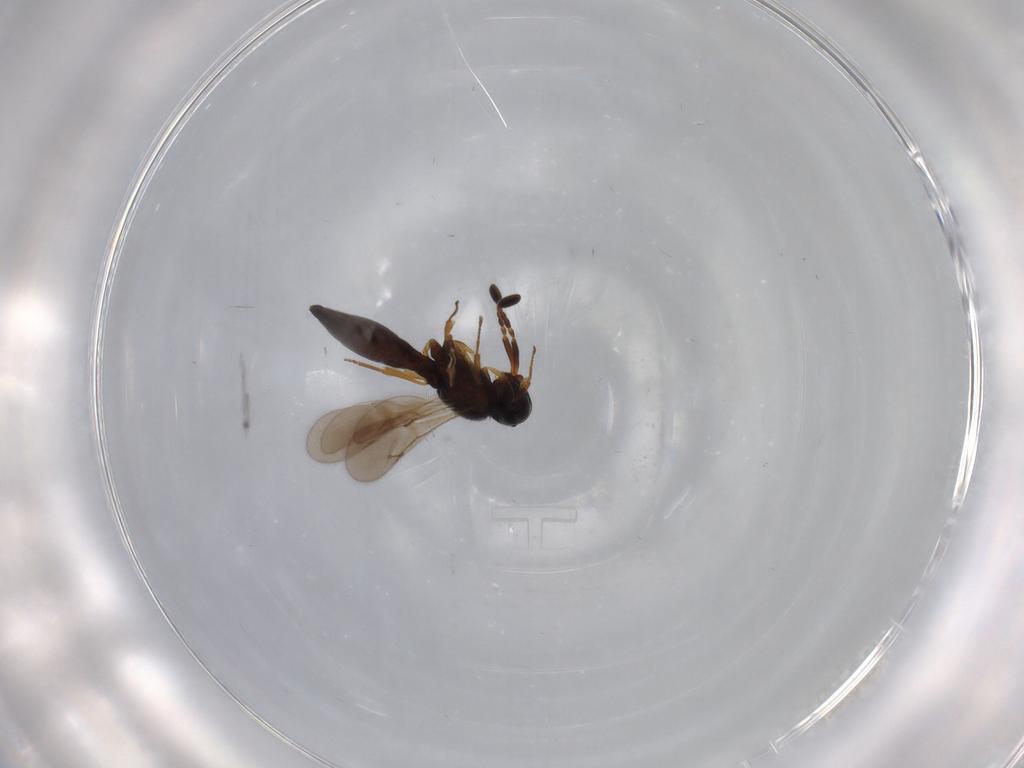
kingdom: Animalia
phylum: Arthropoda
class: Insecta
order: Hymenoptera
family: Scelionidae
